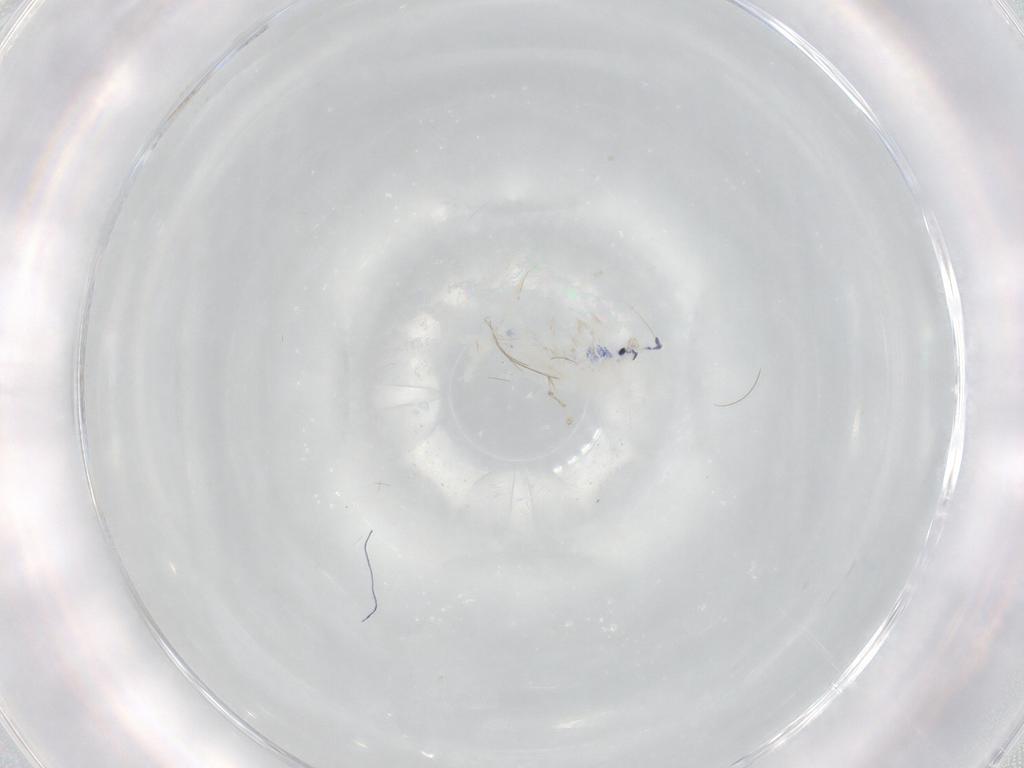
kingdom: Animalia
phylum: Arthropoda
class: Collembola
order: Entomobryomorpha
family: Entomobryidae
